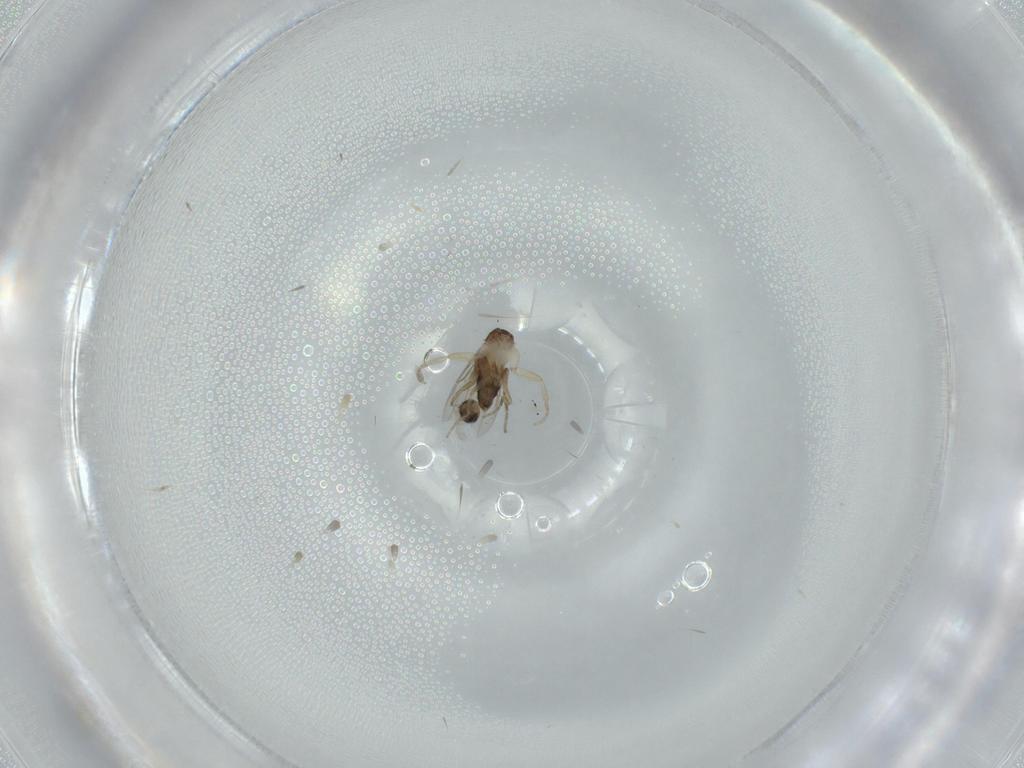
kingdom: Animalia
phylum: Arthropoda
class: Insecta
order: Diptera
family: Phoridae
